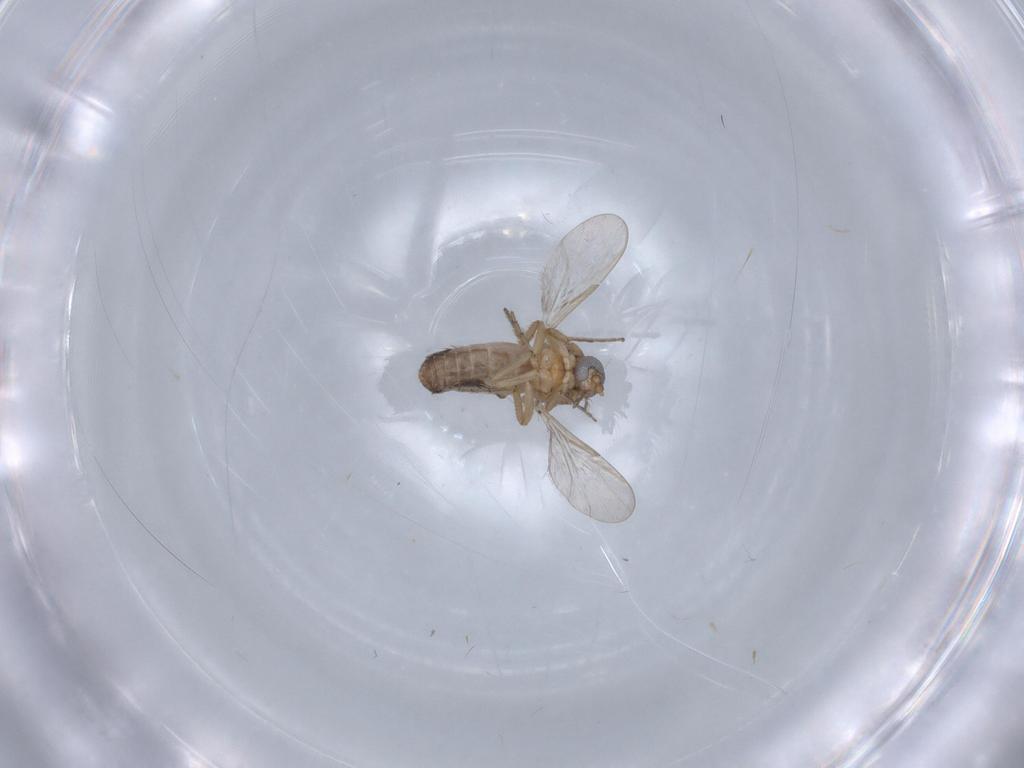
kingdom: Animalia
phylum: Arthropoda
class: Insecta
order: Diptera
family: Ceratopogonidae
